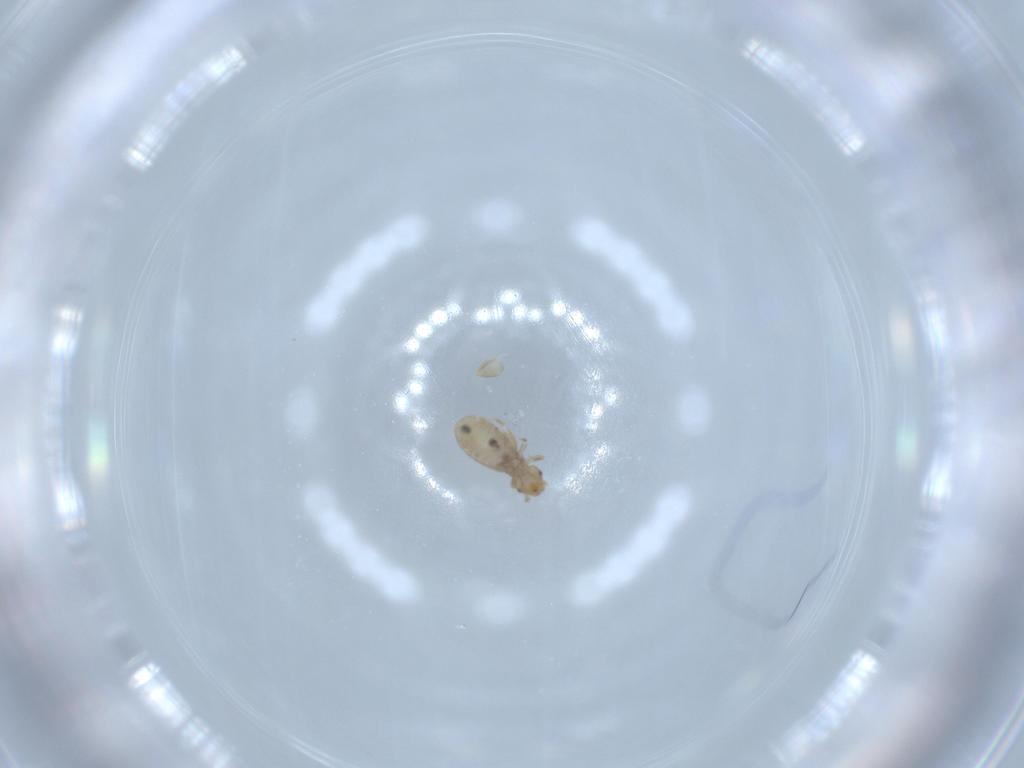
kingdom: Animalia
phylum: Arthropoda
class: Insecta
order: Psocodea
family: Liposcelididae
